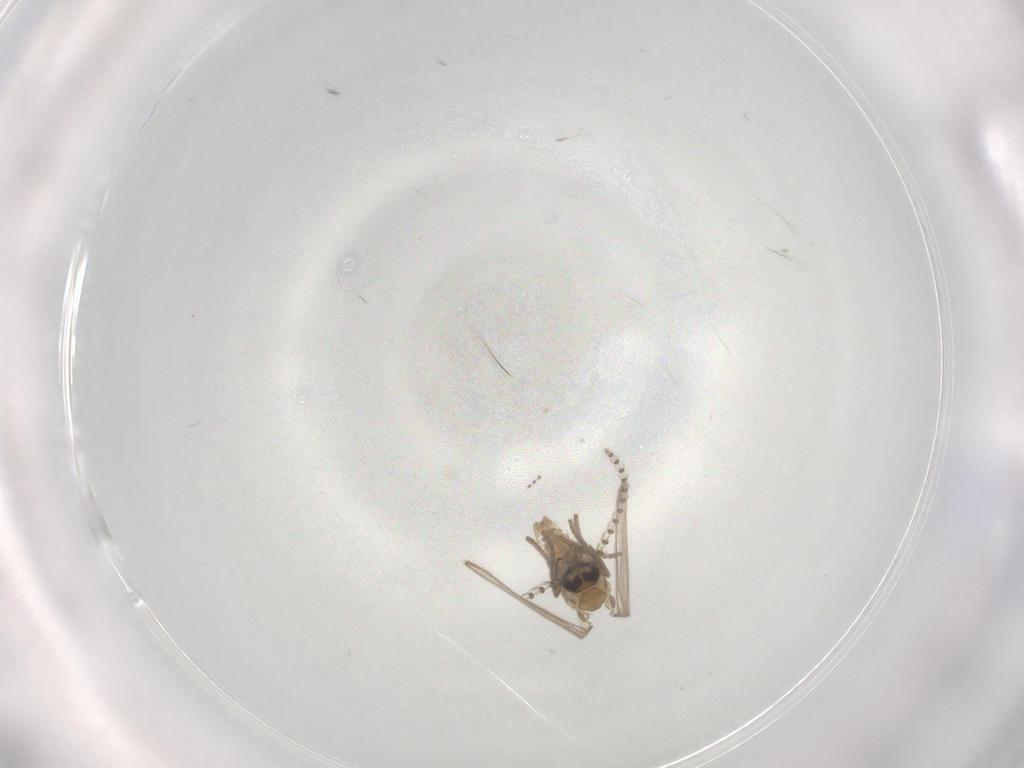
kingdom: Animalia
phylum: Arthropoda
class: Insecta
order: Diptera
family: Psychodidae
